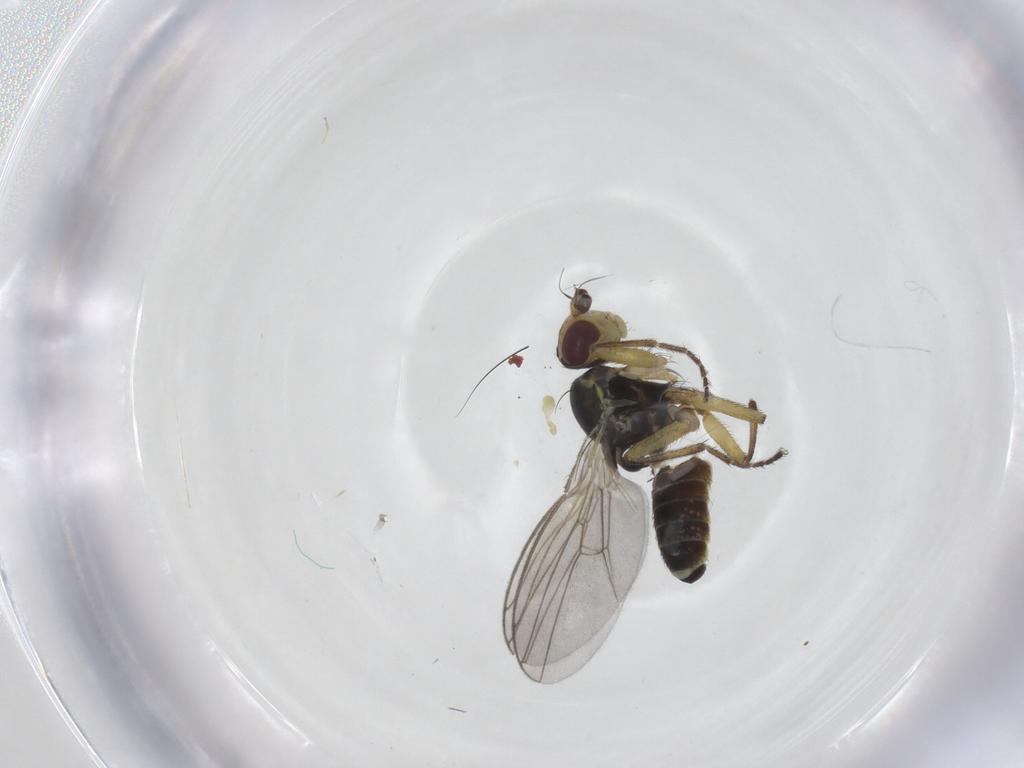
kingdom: Animalia
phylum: Arthropoda
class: Insecta
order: Diptera
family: Agromyzidae
